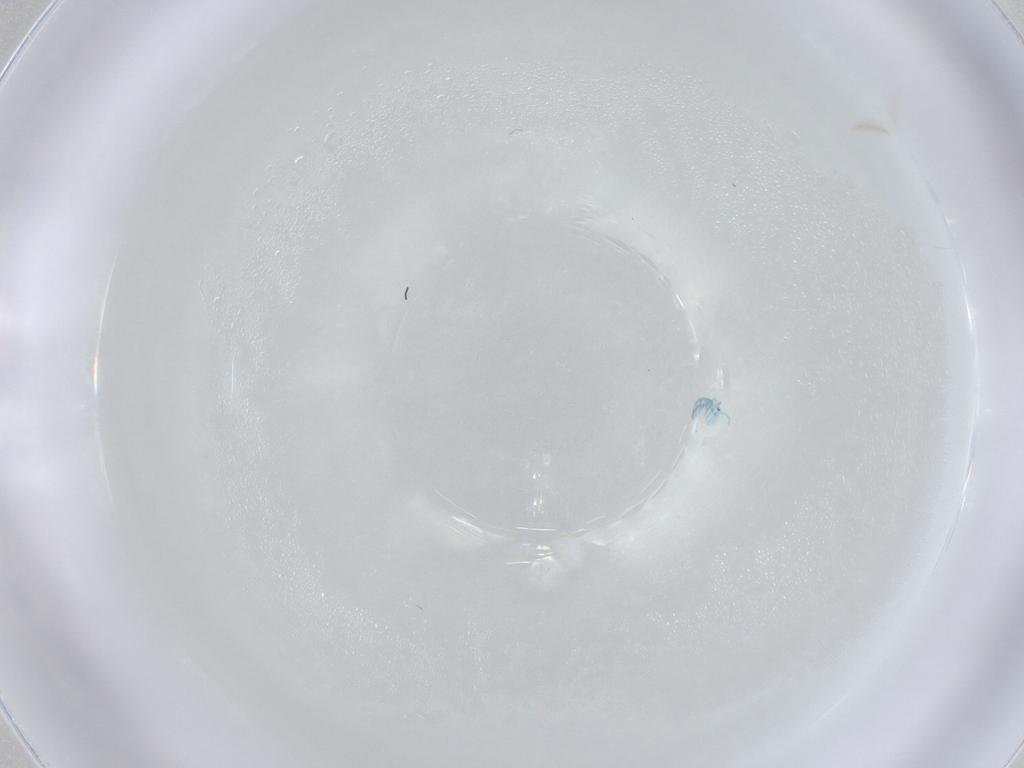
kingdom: Animalia
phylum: Arthropoda
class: Arachnida
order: Trombidiformes
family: Arrenuridae
